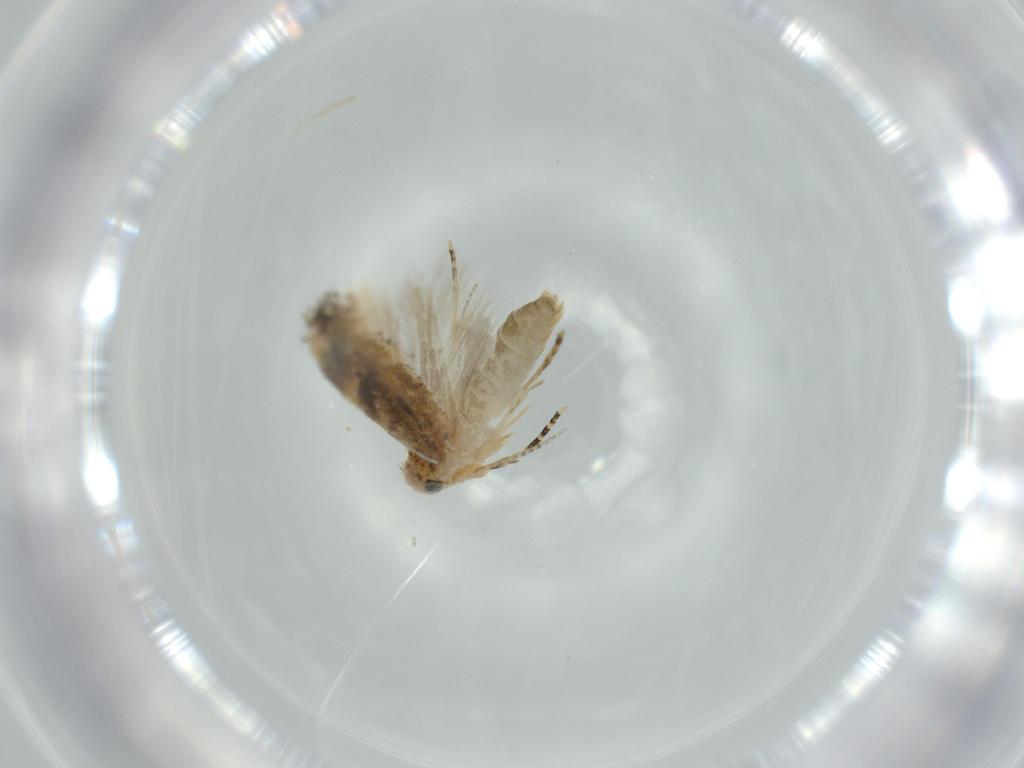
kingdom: Animalia
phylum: Arthropoda
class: Insecta
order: Lepidoptera
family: Bucculatricidae
